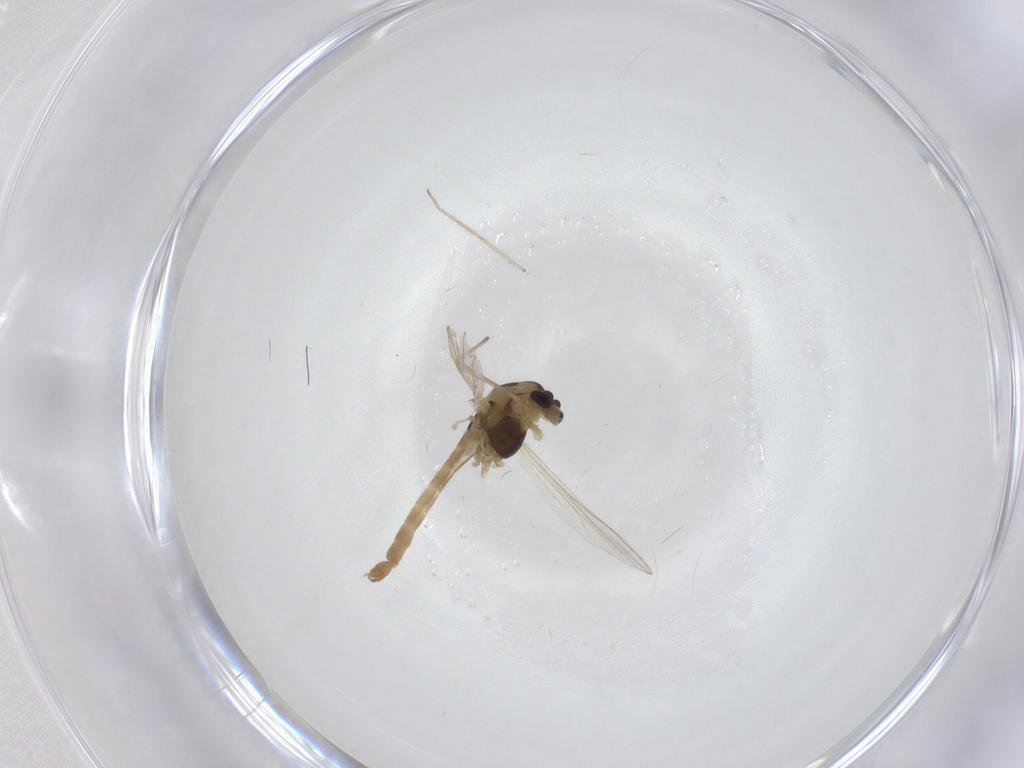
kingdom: Animalia
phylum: Arthropoda
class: Insecta
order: Diptera
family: Chironomidae
